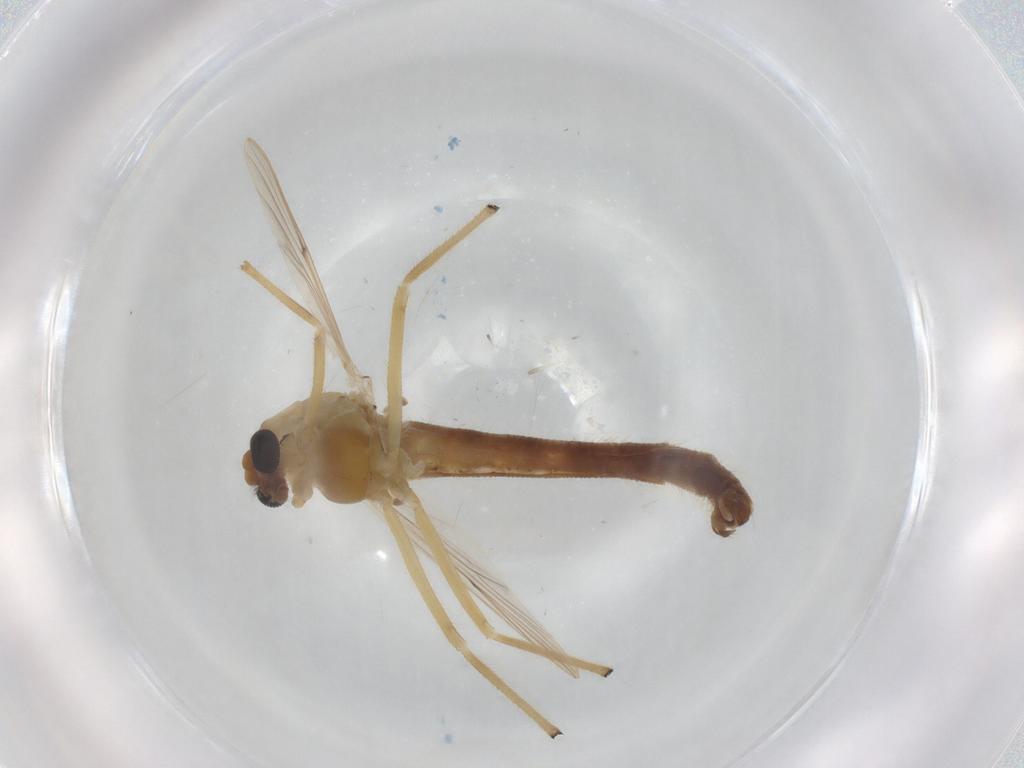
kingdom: Animalia
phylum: Arthropoda
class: Insecta
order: Diptera
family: Chironomidae
